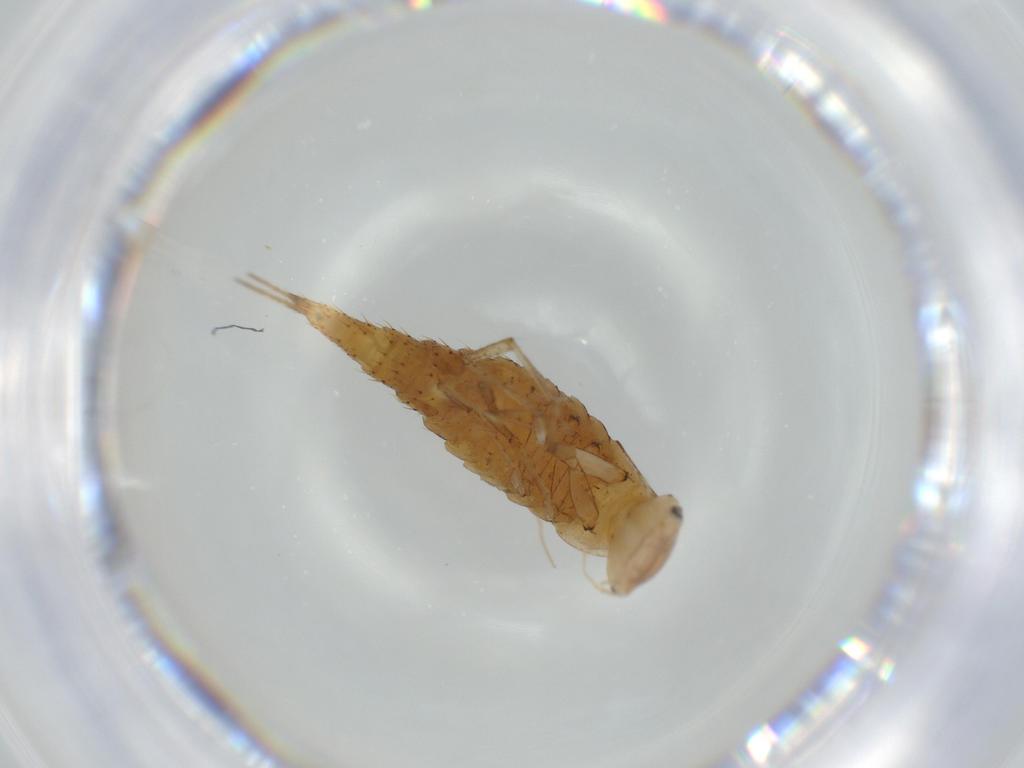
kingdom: Animalia
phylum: Arthropoda
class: Insecta
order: Coleoptera
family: Dytiscidae
